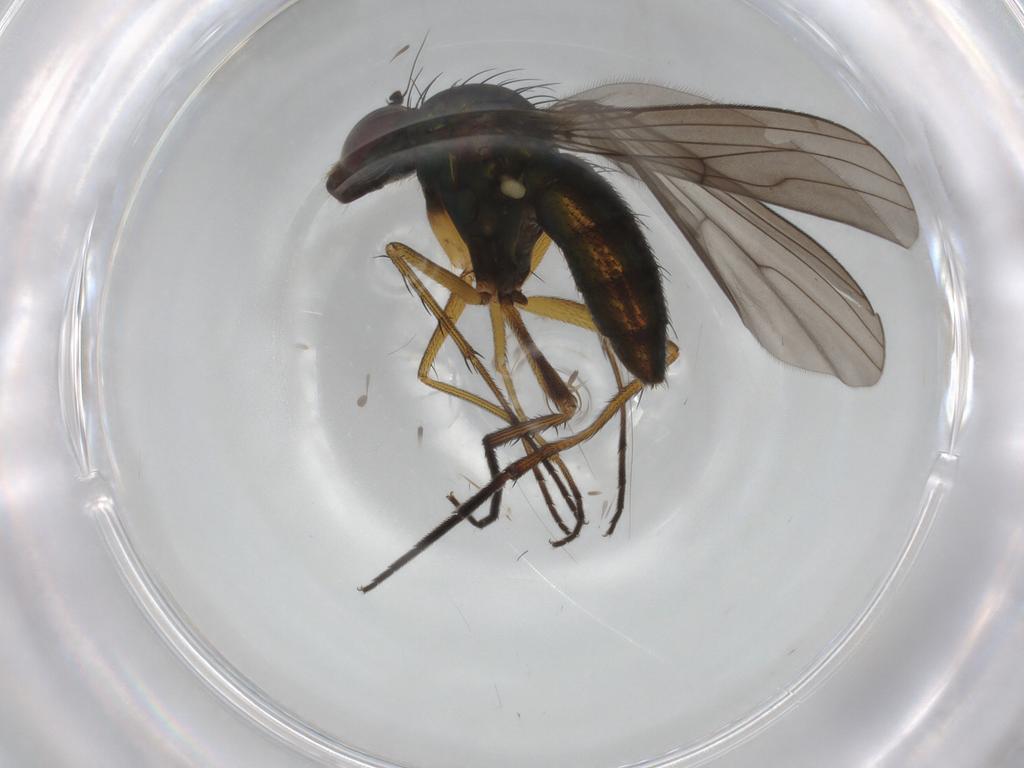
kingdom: Animalia
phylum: Arthropoda
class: Insecta
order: Diptera
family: Dolichopodidae
